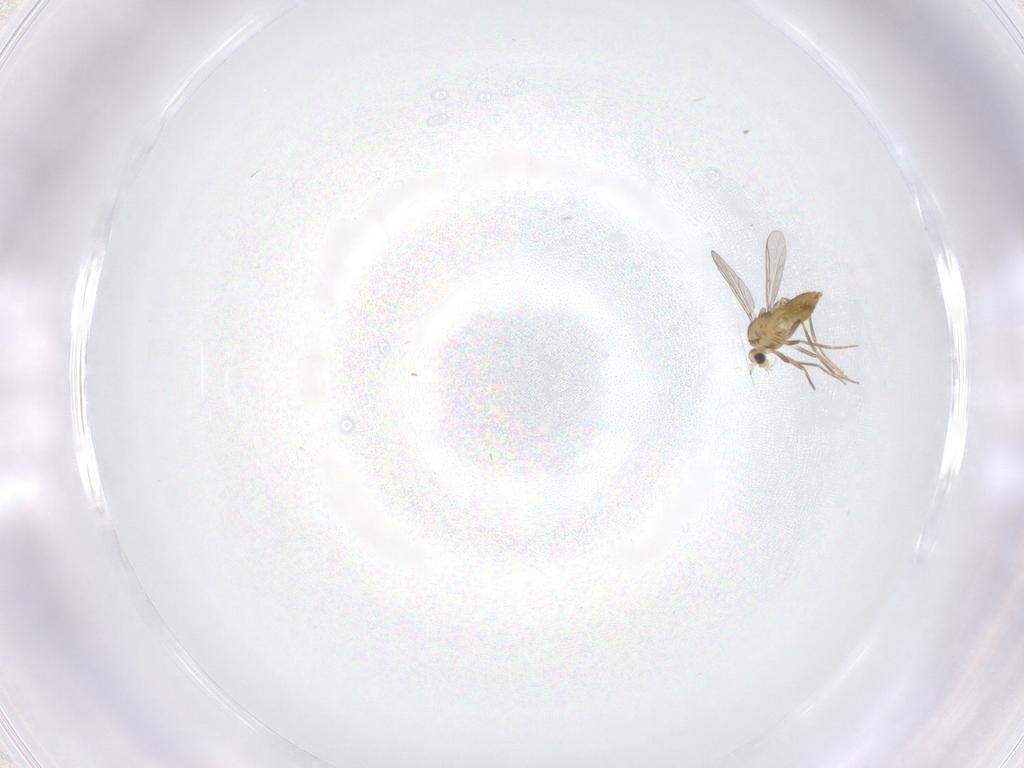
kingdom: Animalia
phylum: Arthropoda
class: Insecta
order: Diptera
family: Chironomidae
